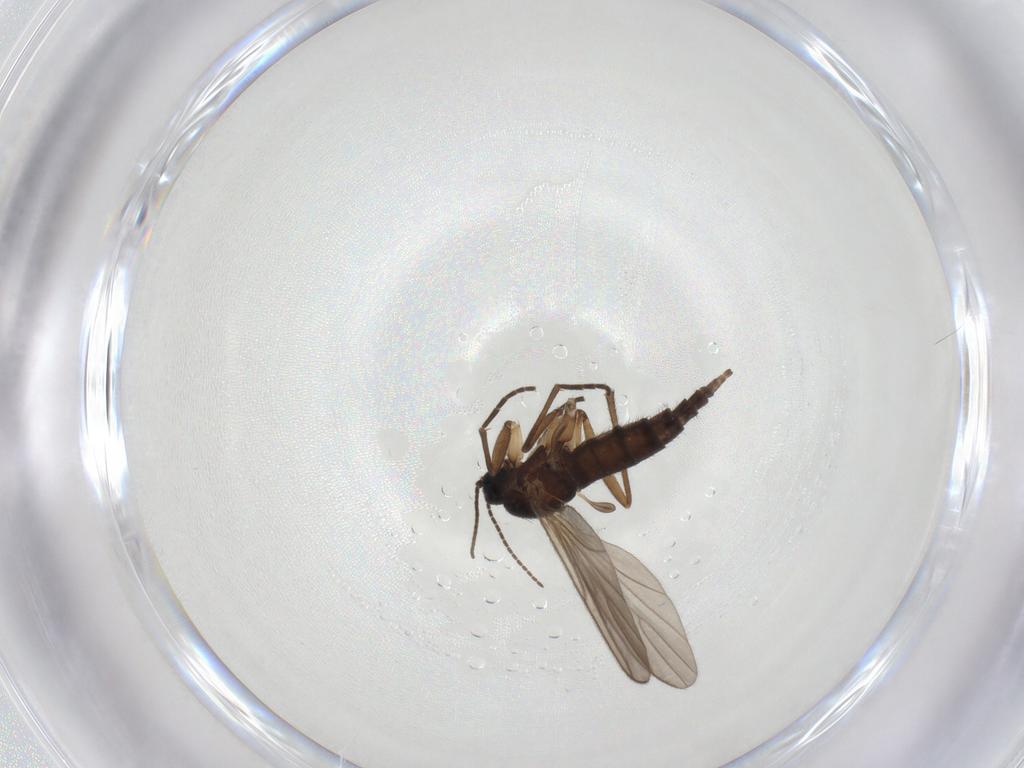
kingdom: Animalia
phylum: Arthropoda
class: Insecta
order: Diptera
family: Sciaridae
